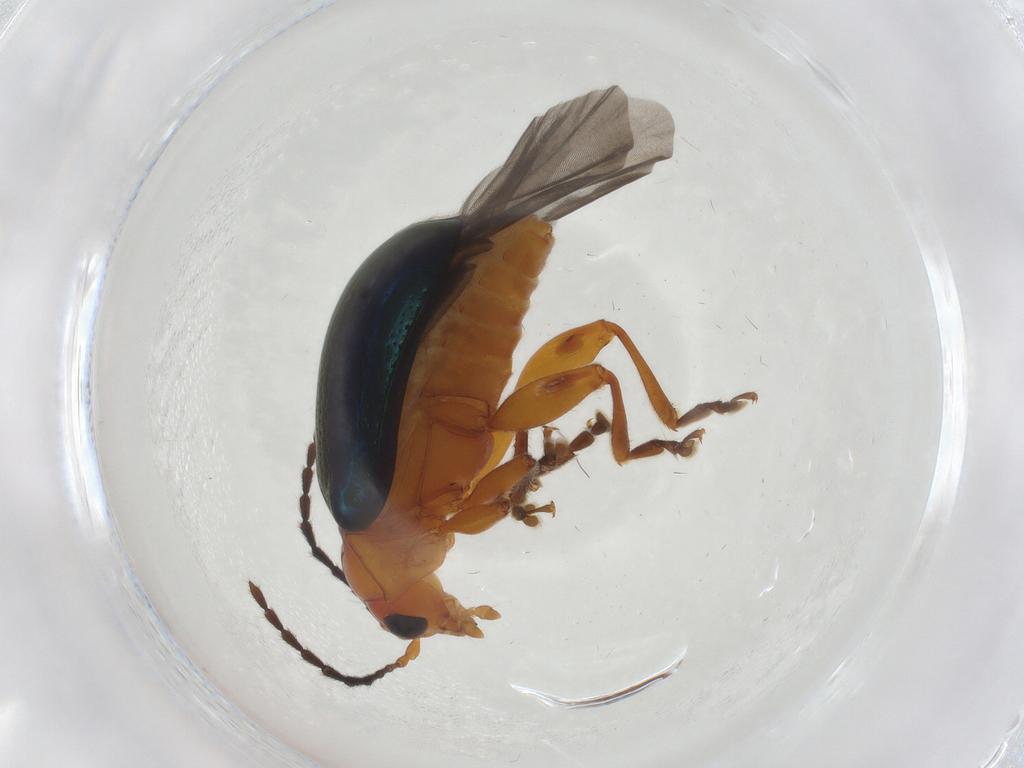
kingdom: Animalia
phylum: Arthropoda
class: Insecta
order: Coleoptera
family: Chrysomelidae
